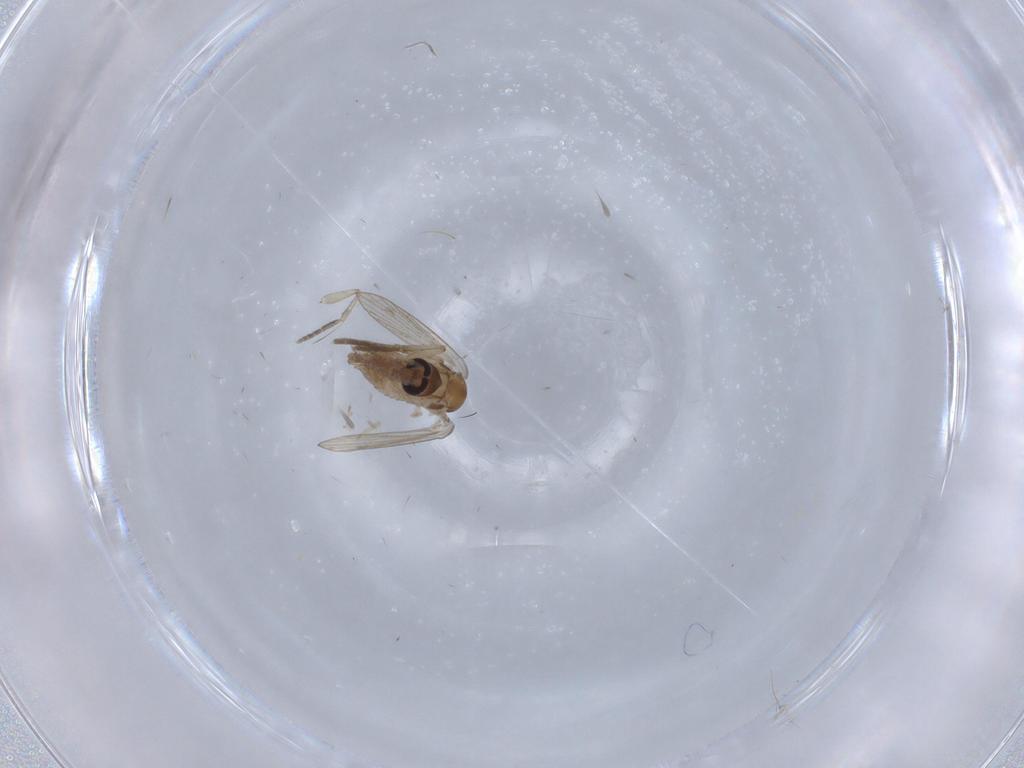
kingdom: Animalia
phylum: Arthropoda
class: Insecta
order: Diptera
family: Psychodidae
